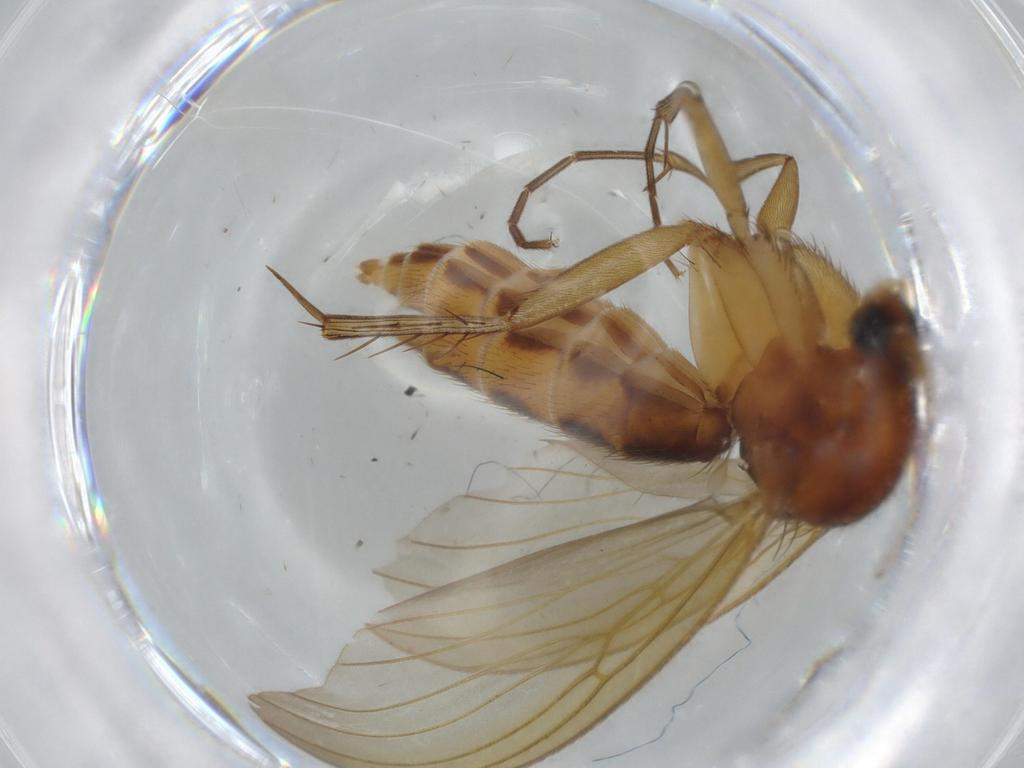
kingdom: Animalia
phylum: Arthropoda
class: Insecta
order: Diptera
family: Mycetophilidae
